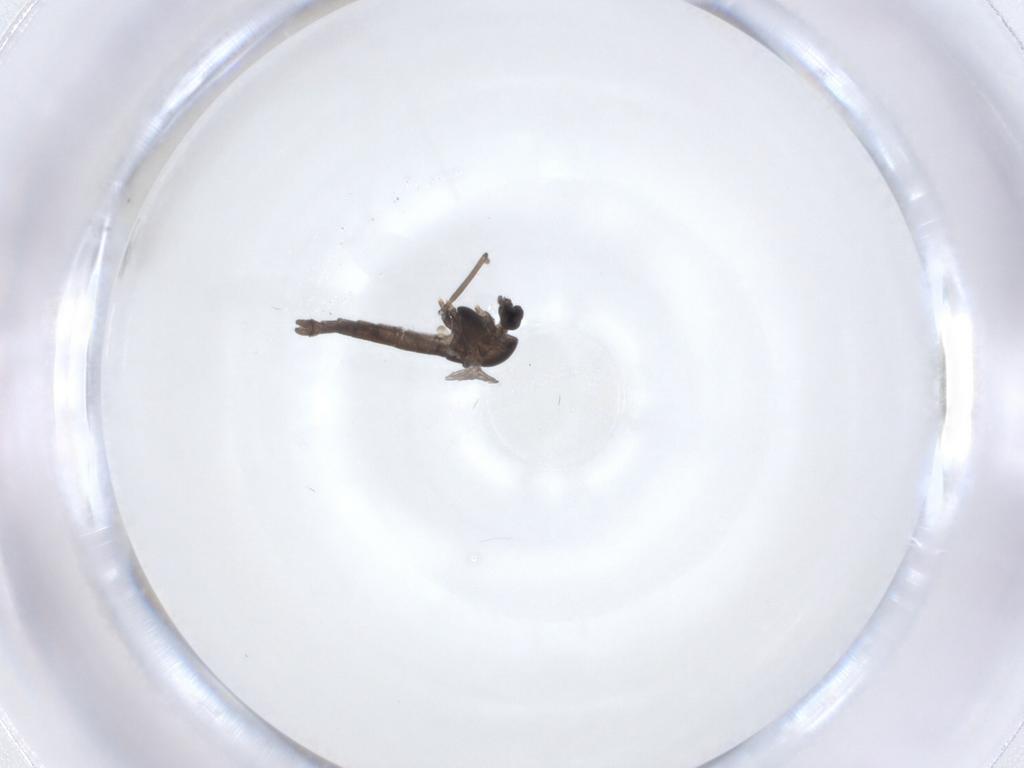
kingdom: Animalia
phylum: Arthropoda
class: Insecta
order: Diptera
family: Chironomidae
